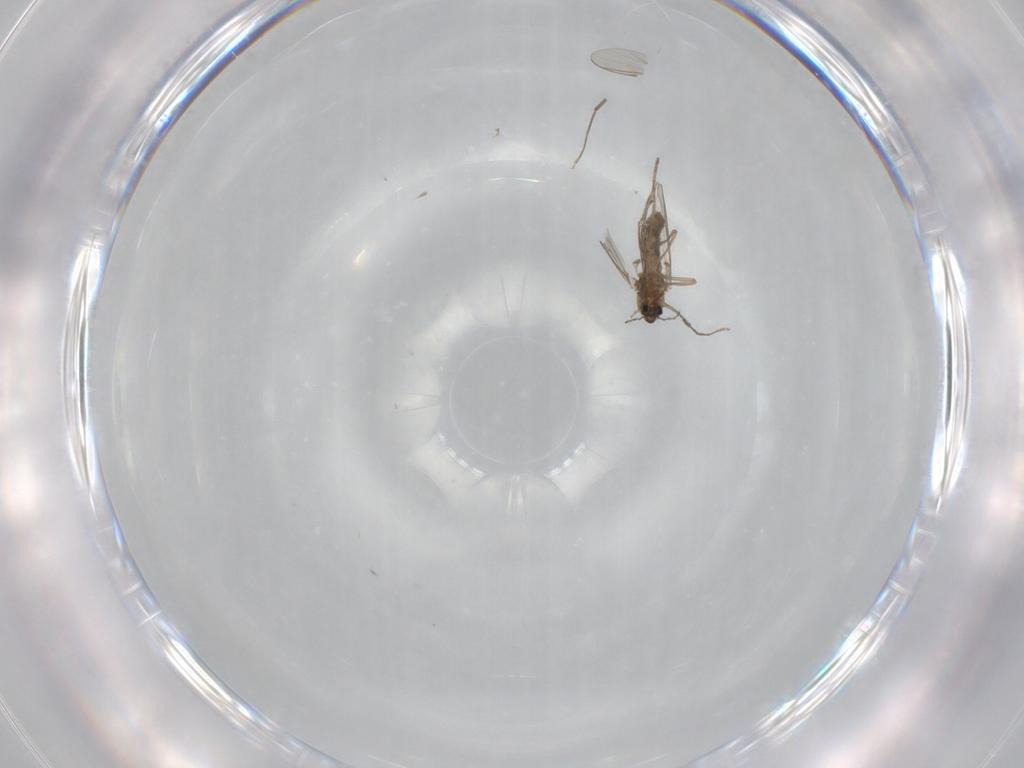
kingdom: Animalia
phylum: Arthropoda
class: Insecta
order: Diptera
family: Chironomidae
